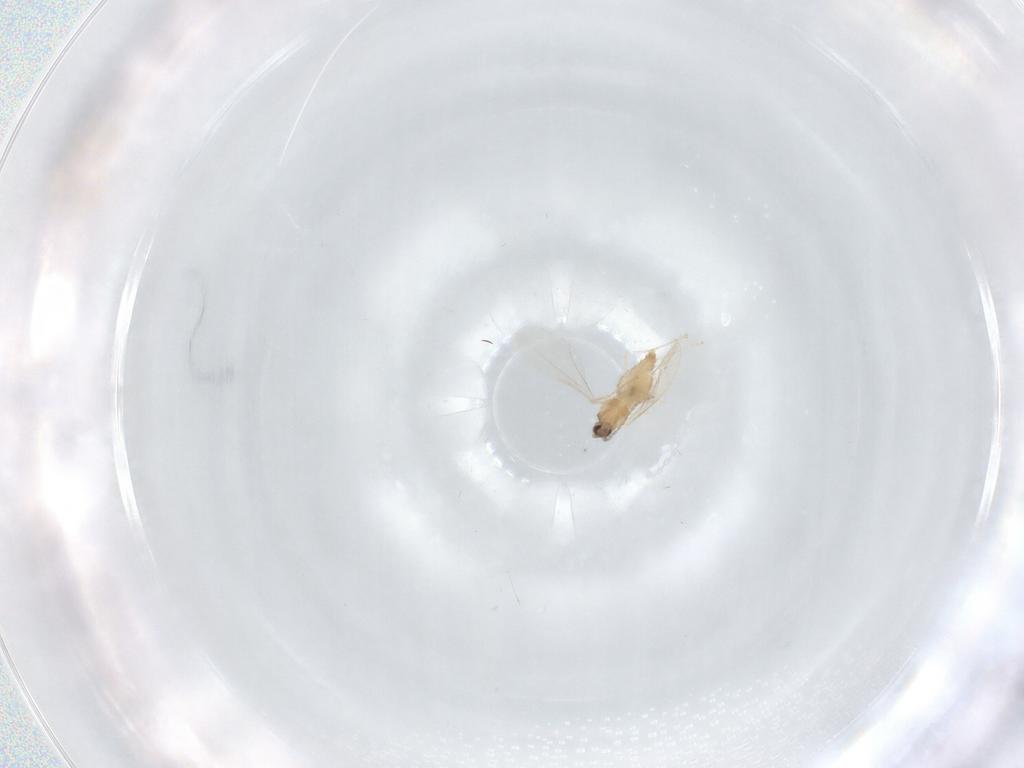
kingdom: Animalia
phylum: Arthropoda
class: Insecta
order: Diptera
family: Cecidomyiidae
